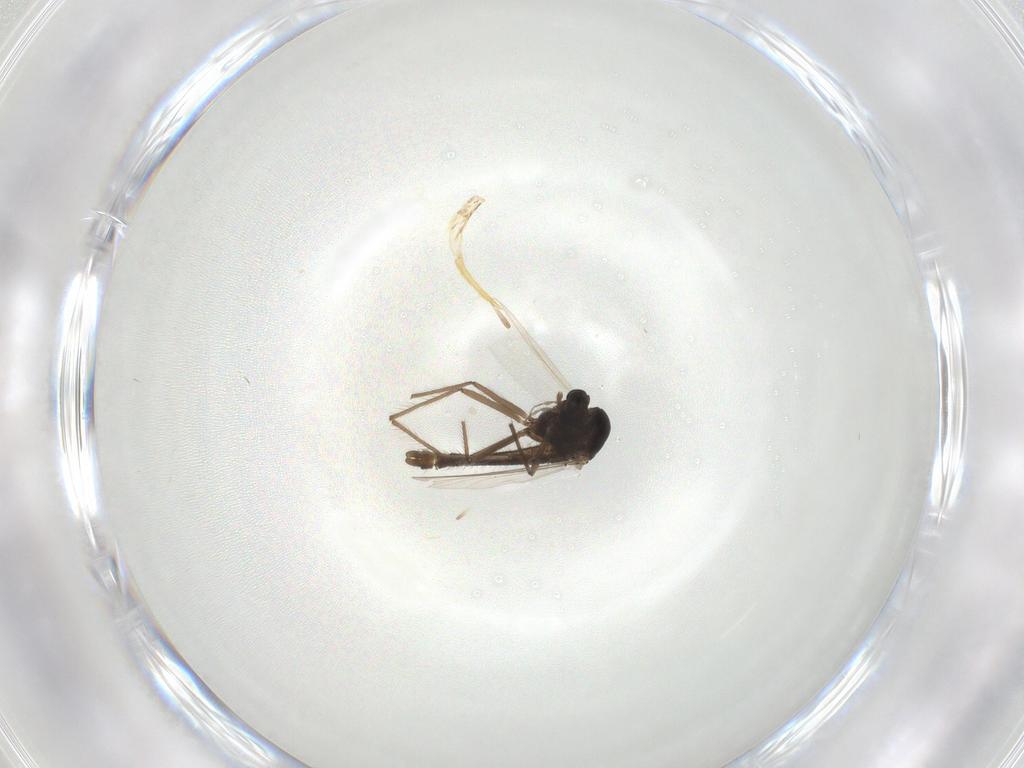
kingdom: Animalia
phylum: Arthropoda
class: Insecta
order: Diptera
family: Chironomidae
